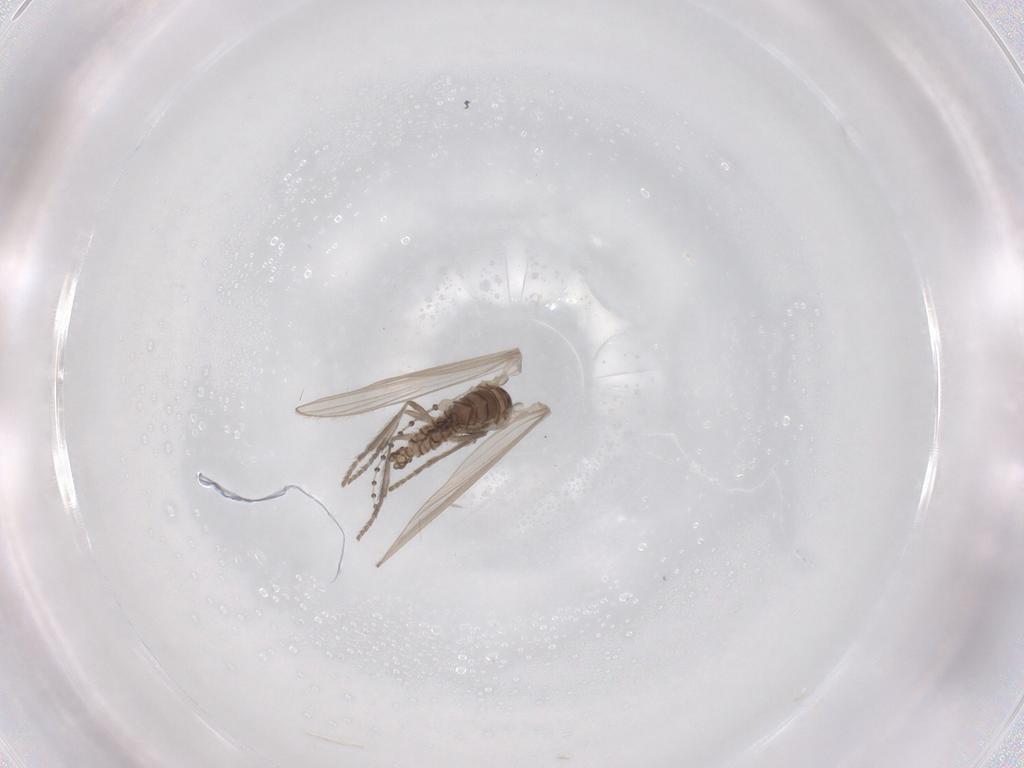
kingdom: Animalia
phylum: Arthropoda
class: Insecta
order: Diptera
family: Psychodidae
